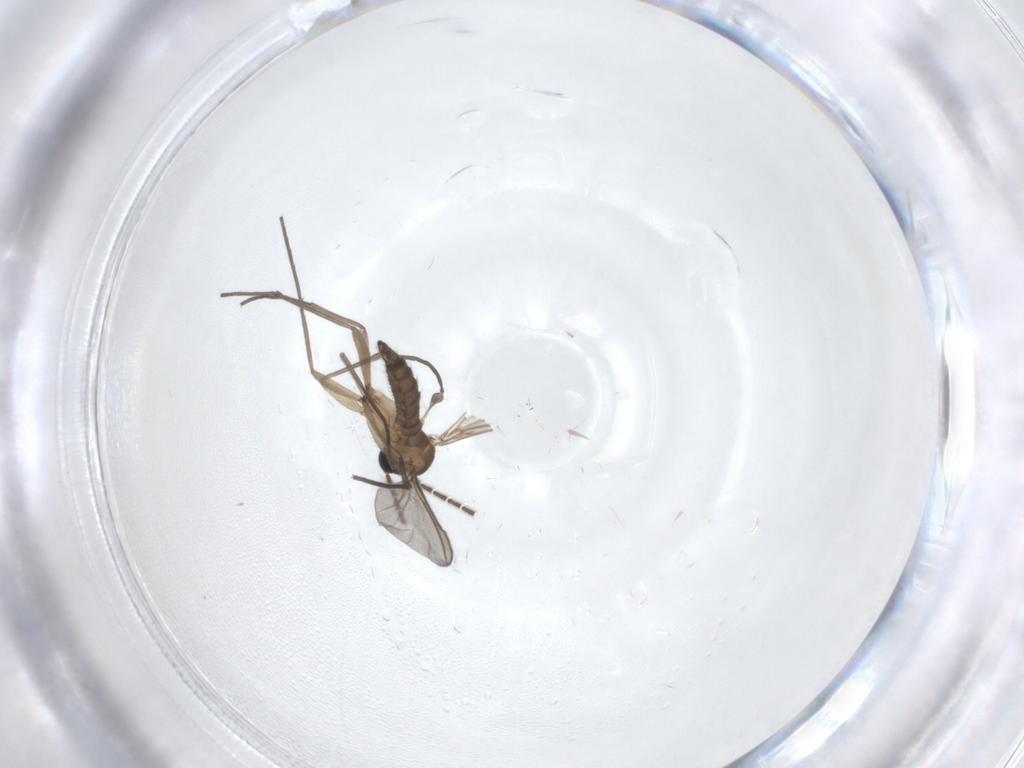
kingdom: Animalia
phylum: Arthropoda
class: Insecta
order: Diptera
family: Sciaridae
